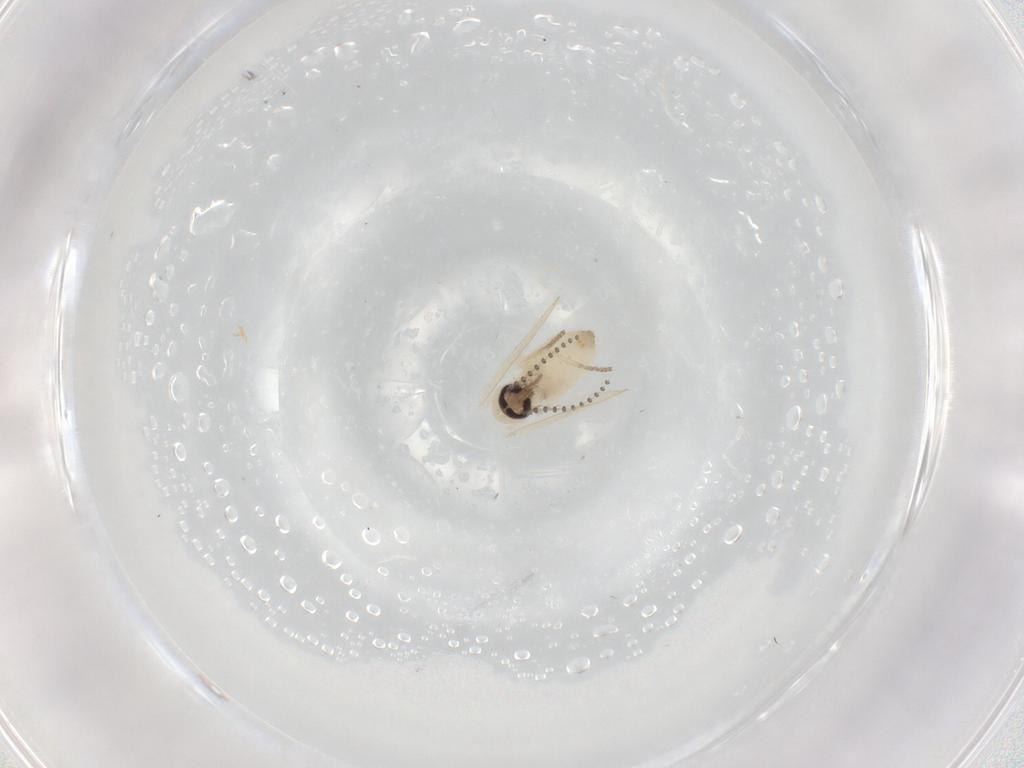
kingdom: Animalia
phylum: Arthropoda
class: Insecta
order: Diptera
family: Phoridae
